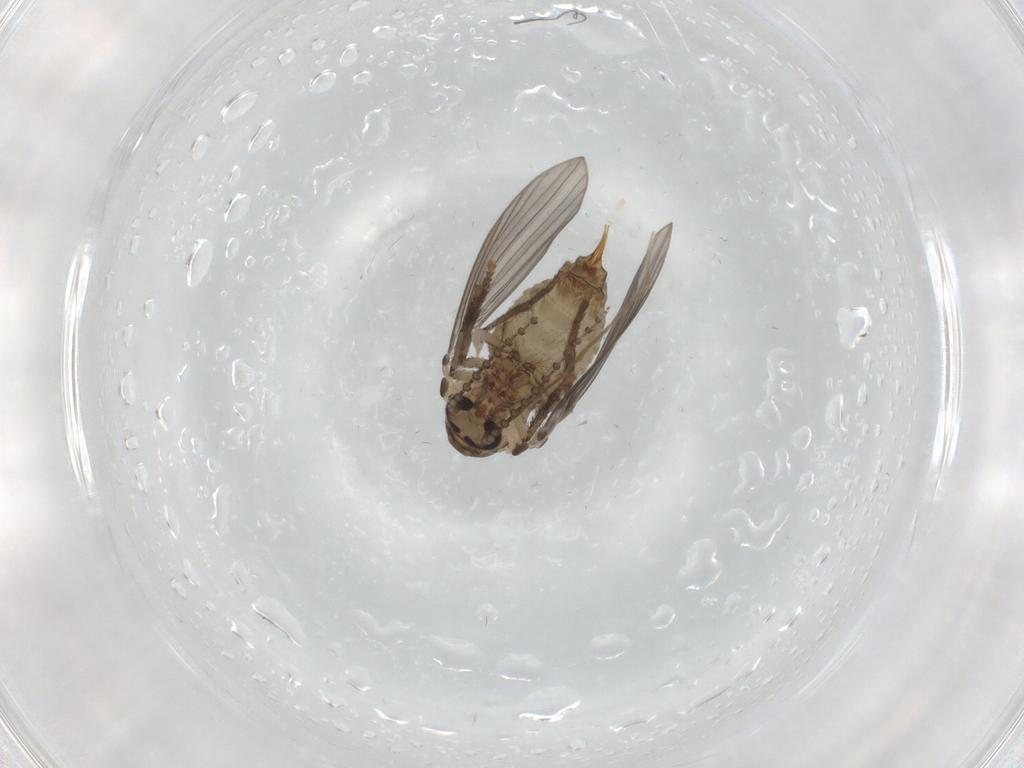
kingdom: Animalia
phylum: Arthropoda
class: Insecta
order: Diptera
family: Psychodidae
